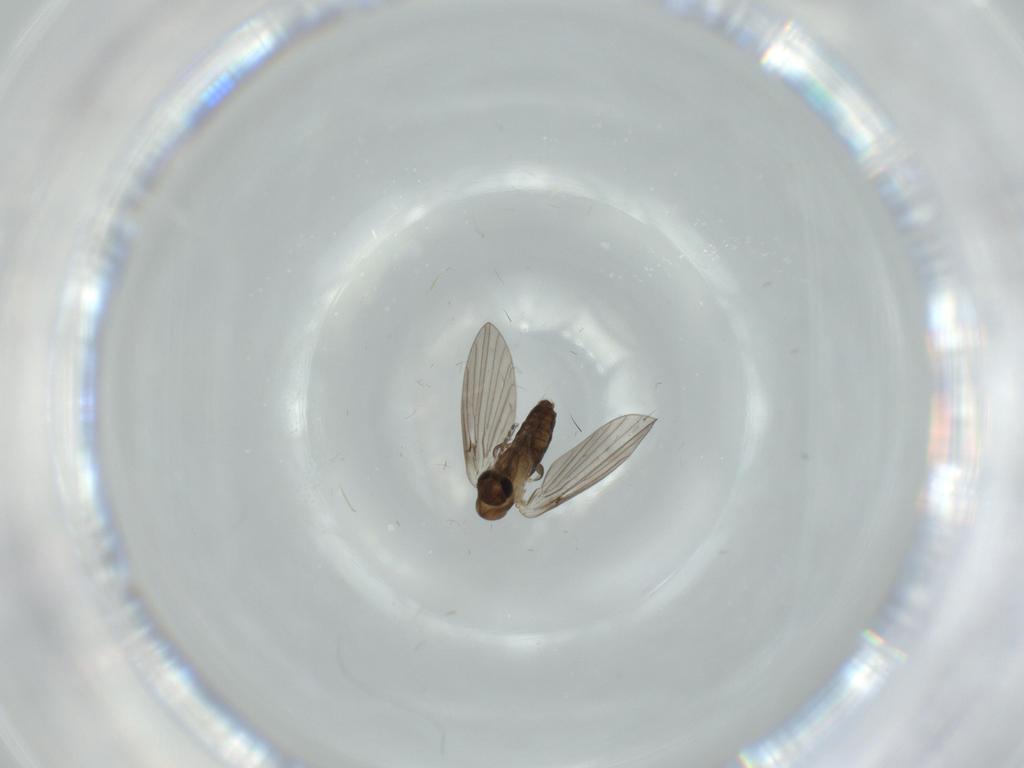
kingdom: Animalia
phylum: Arthropoda
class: Insecta
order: Diptera
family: Psychodidae
